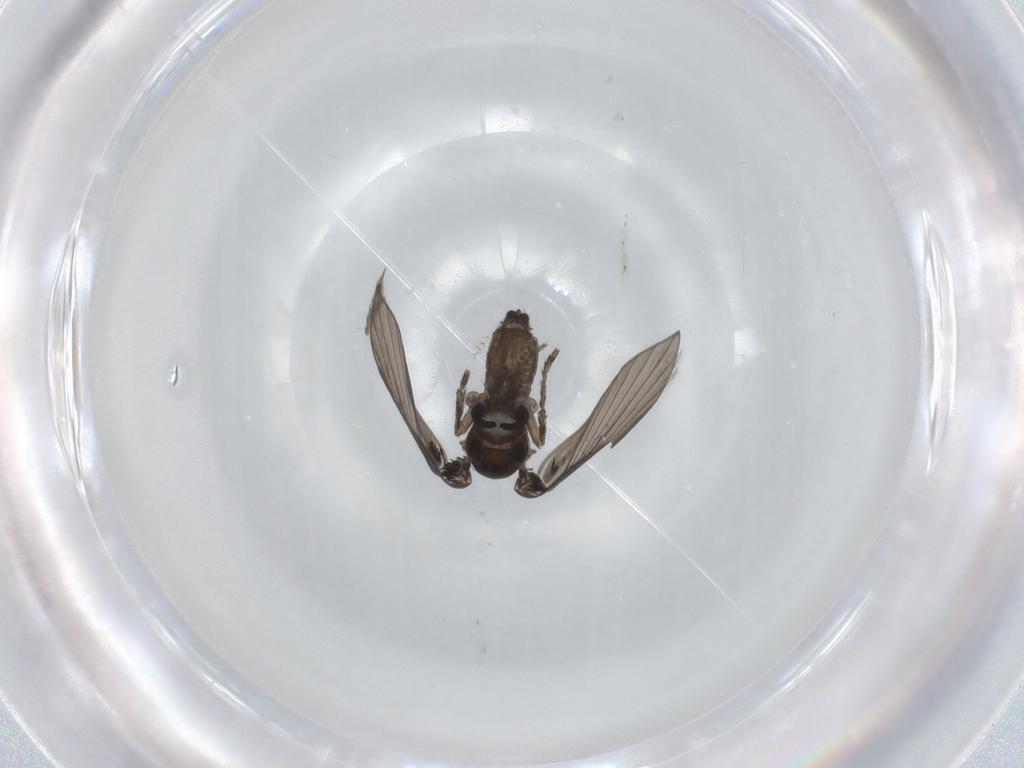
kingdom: Animalia
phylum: Arthropoda
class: Insecta
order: Diptera
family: Psychodidae
